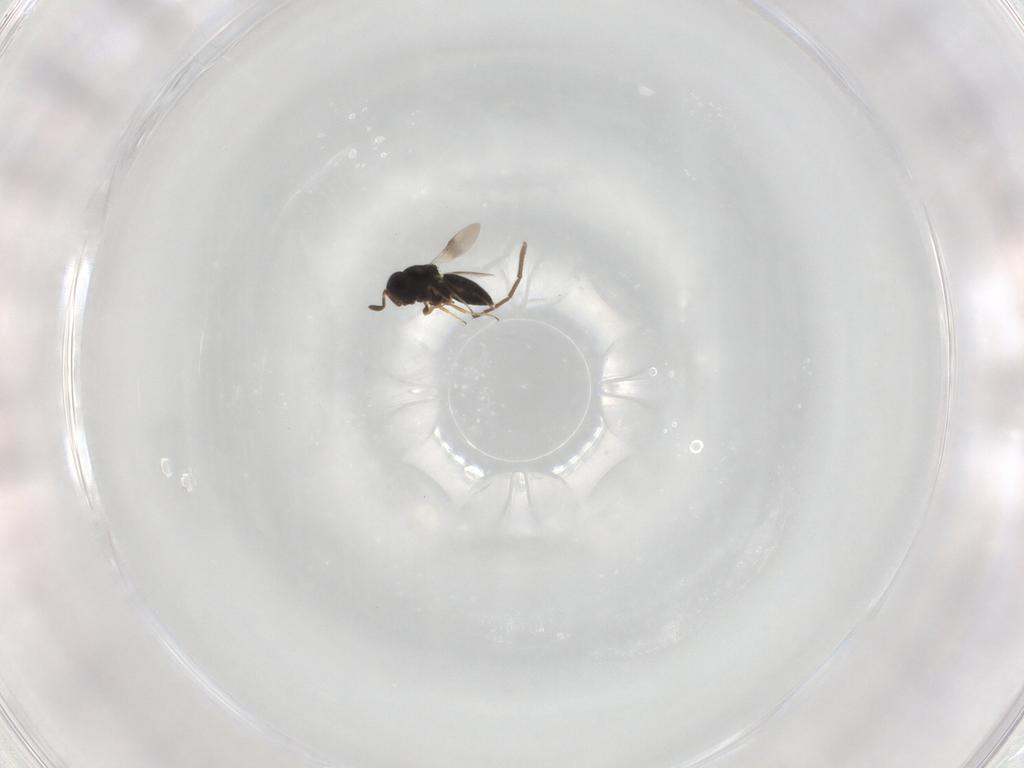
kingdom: Animalia
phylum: Arthropoda
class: Insecta
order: Hymenoptera
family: Scelionidae
